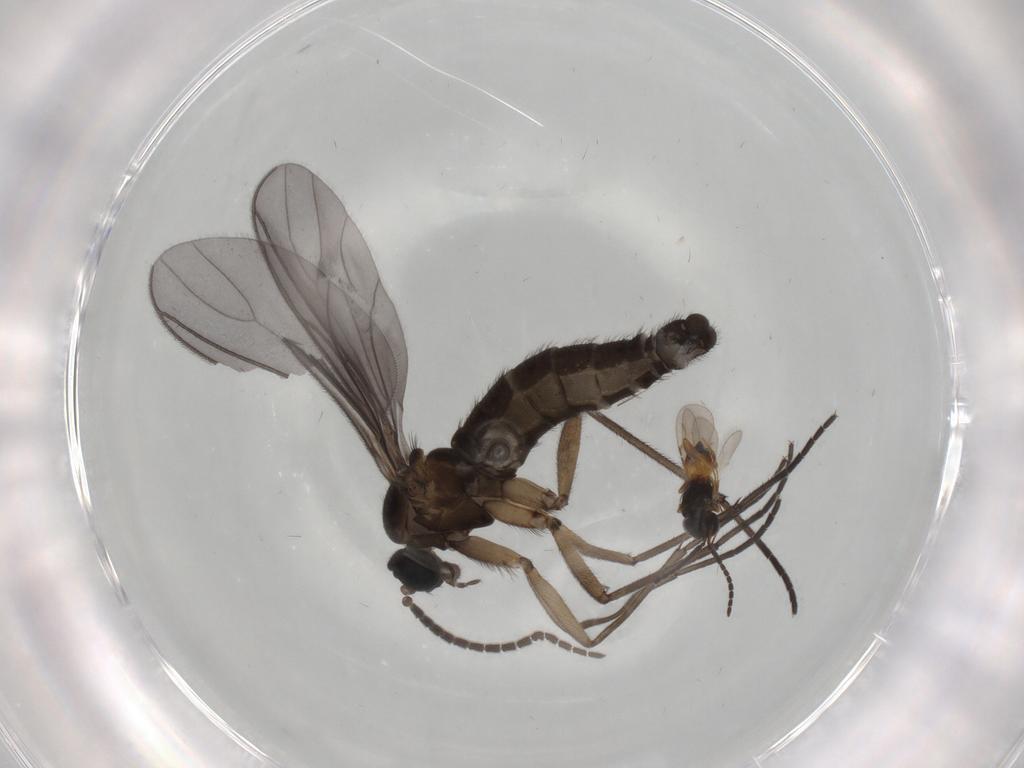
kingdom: Animalia
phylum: Arthropoda
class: Insecta
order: Diptera
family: Sciaridae
